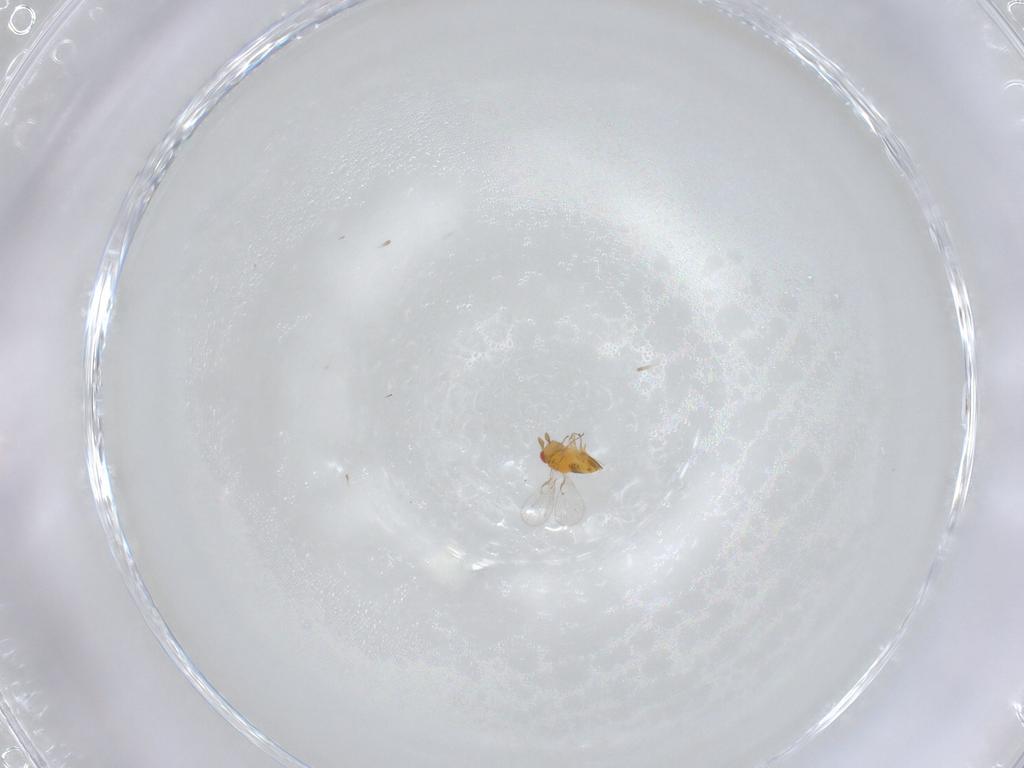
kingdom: Animalia
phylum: Arthropoda
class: Insecta
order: Hymenoptera
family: Trichogrammatidae
